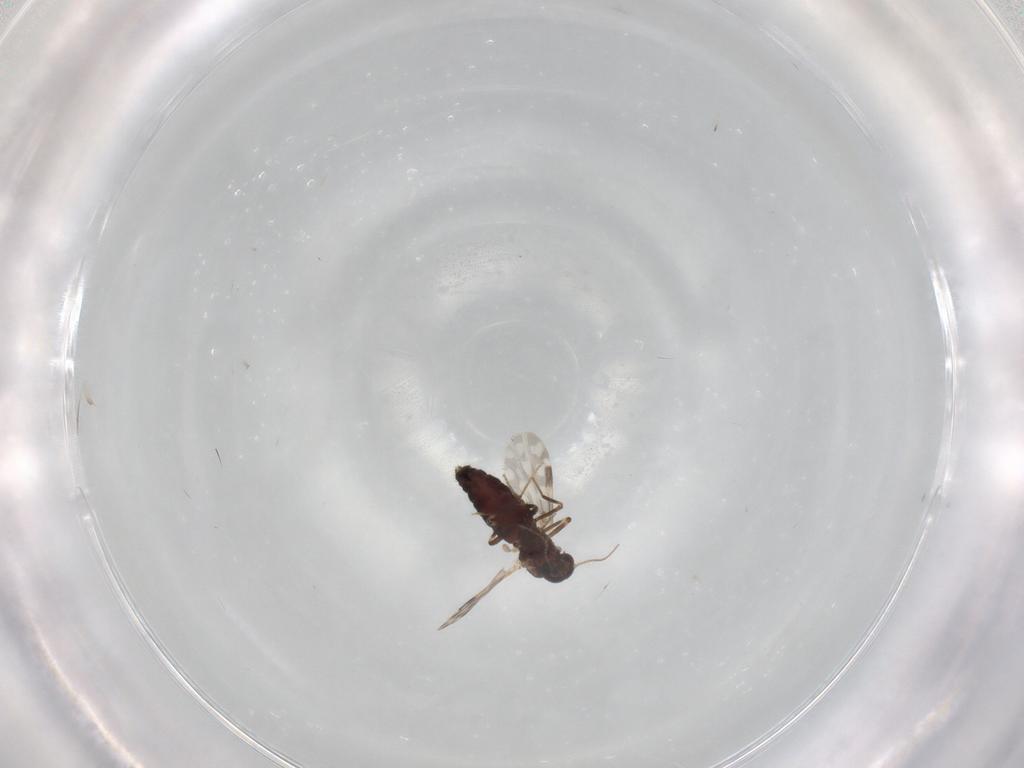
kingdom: Animalia
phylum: Arthropoda
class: Insecta
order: Diptera
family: Ceratopogonidae
